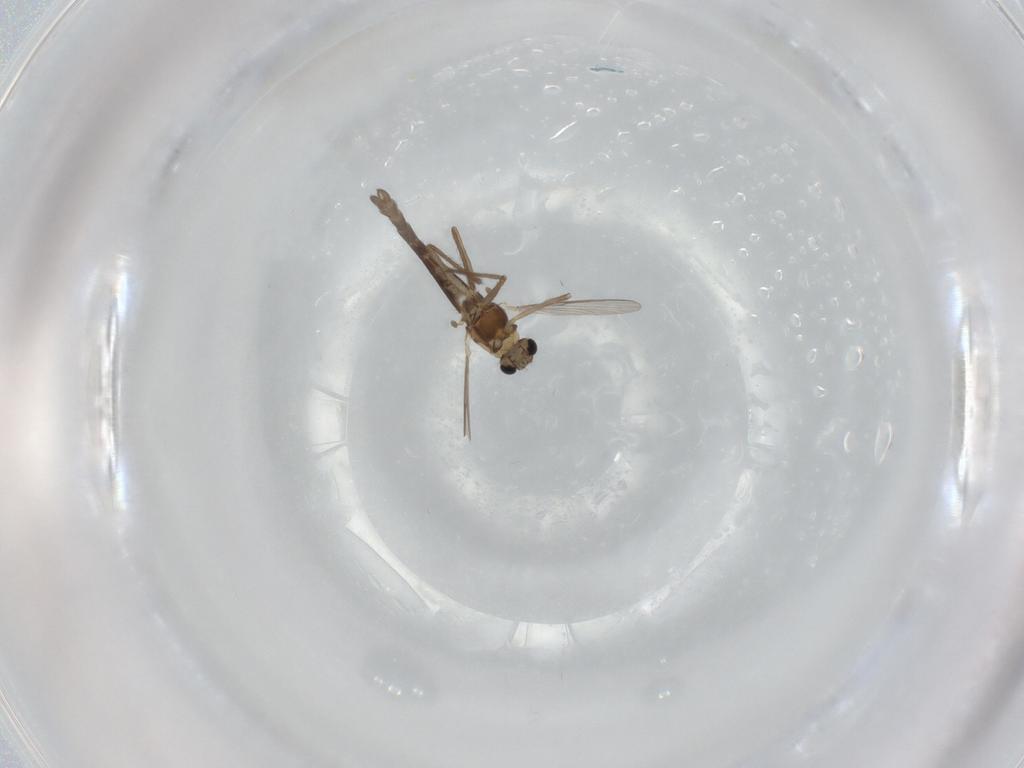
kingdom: Animalia
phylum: Arthropoda
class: Insecta
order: Diptera
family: Chironomidae
